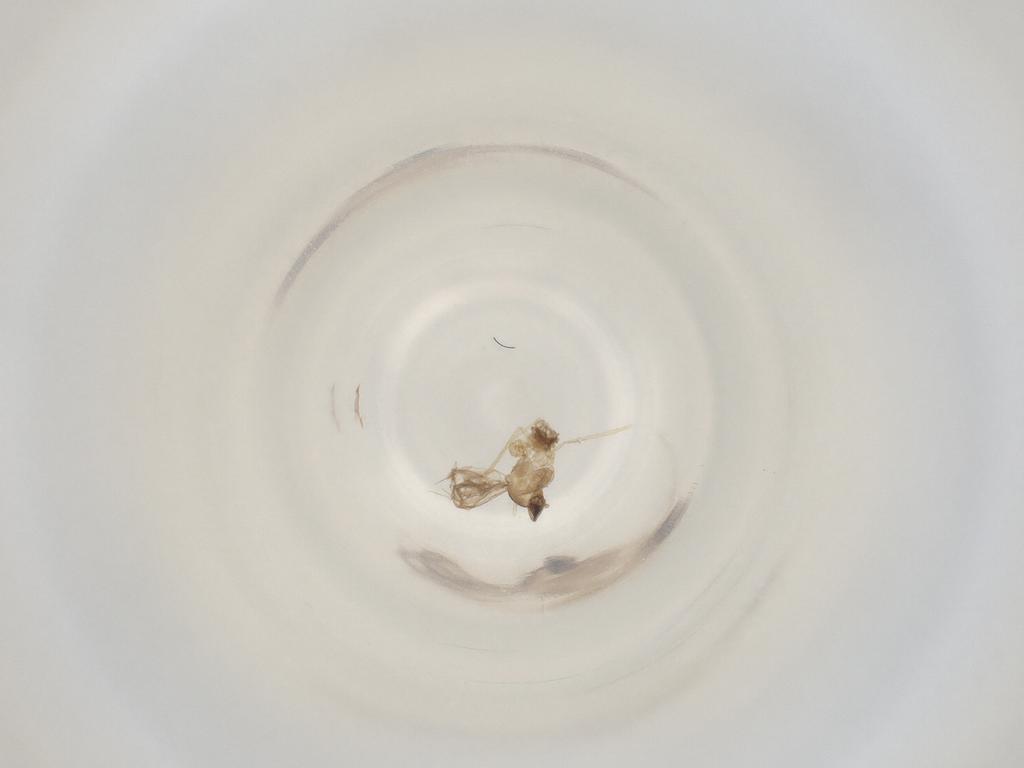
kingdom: Animalia
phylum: Arthropoda
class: Insecta
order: Diptera
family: Cecidomyiidae
